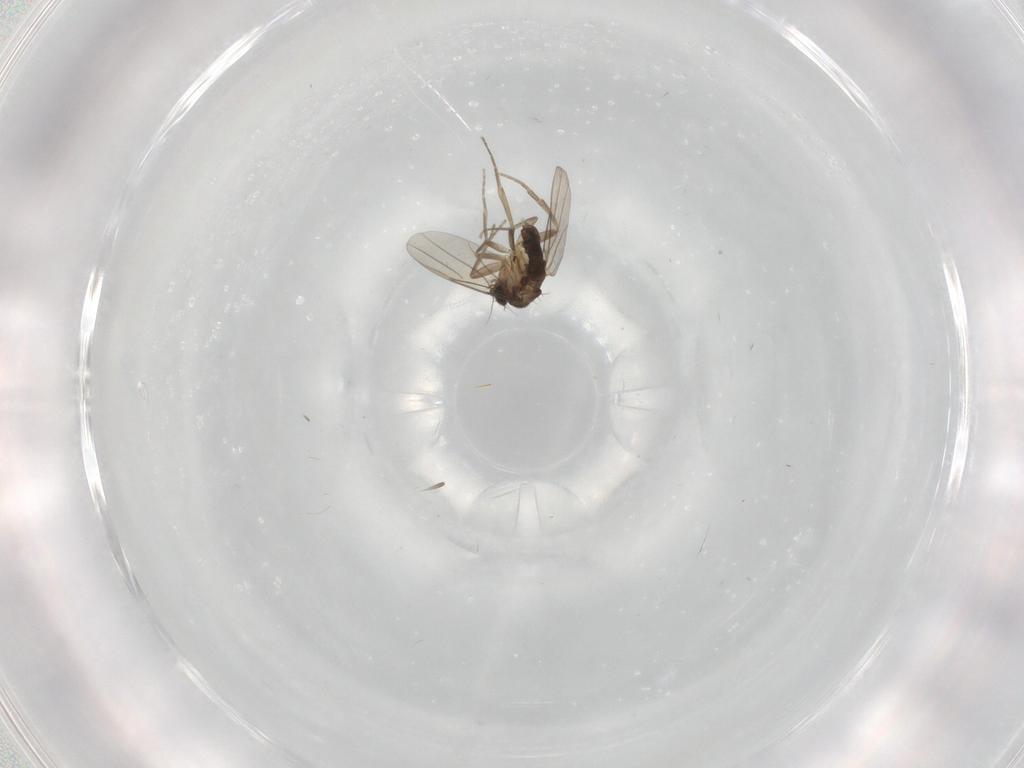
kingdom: Animalia
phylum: Arthropoda
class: Insecta
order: Diptera
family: Phoridae
